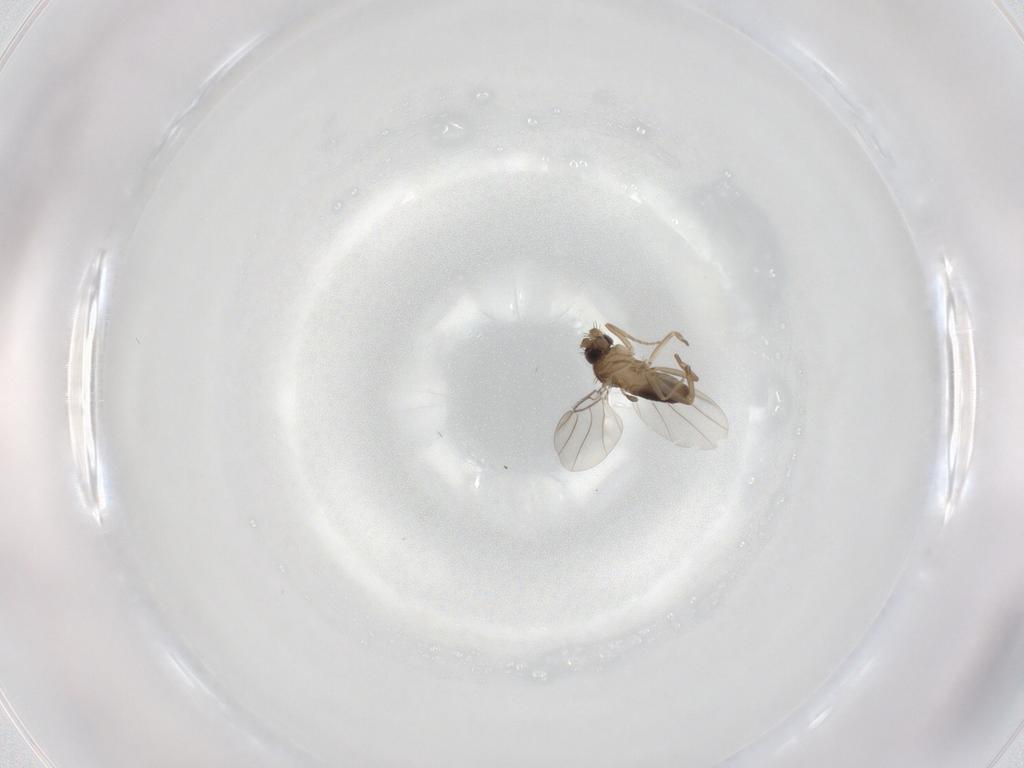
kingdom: Animalia
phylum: Arthropoda
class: Insecta
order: Diptera
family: Phoridae
